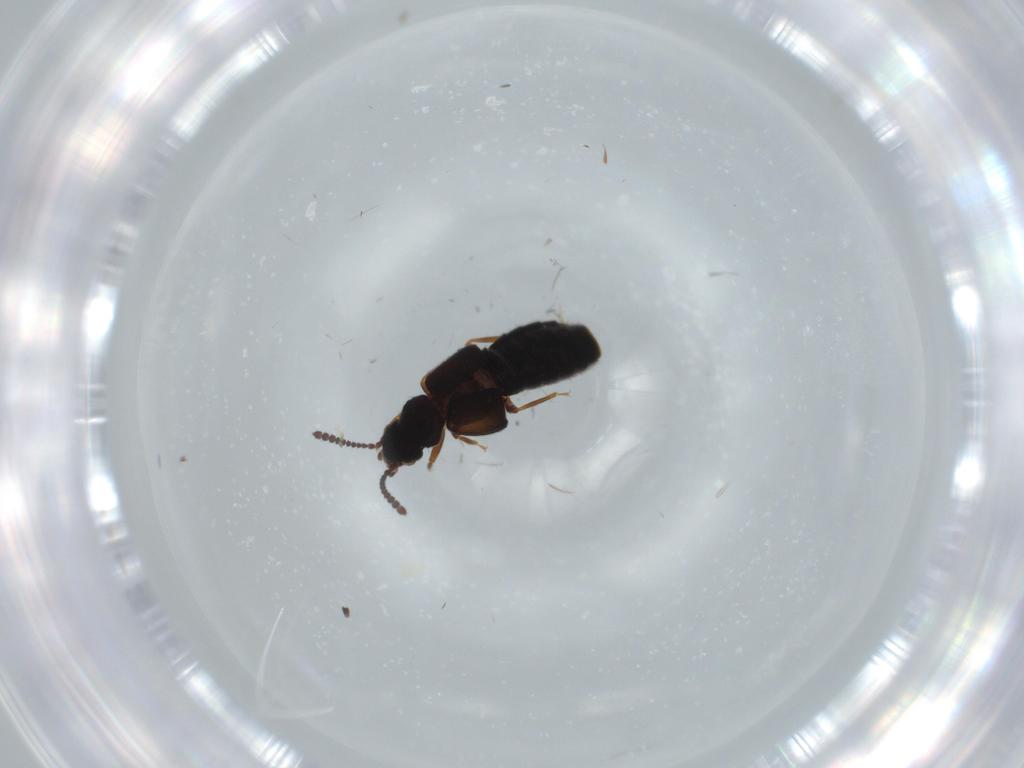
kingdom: Animalia
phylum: Arthropoda
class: Insecta
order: Coleoptera
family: Staphylinidae
